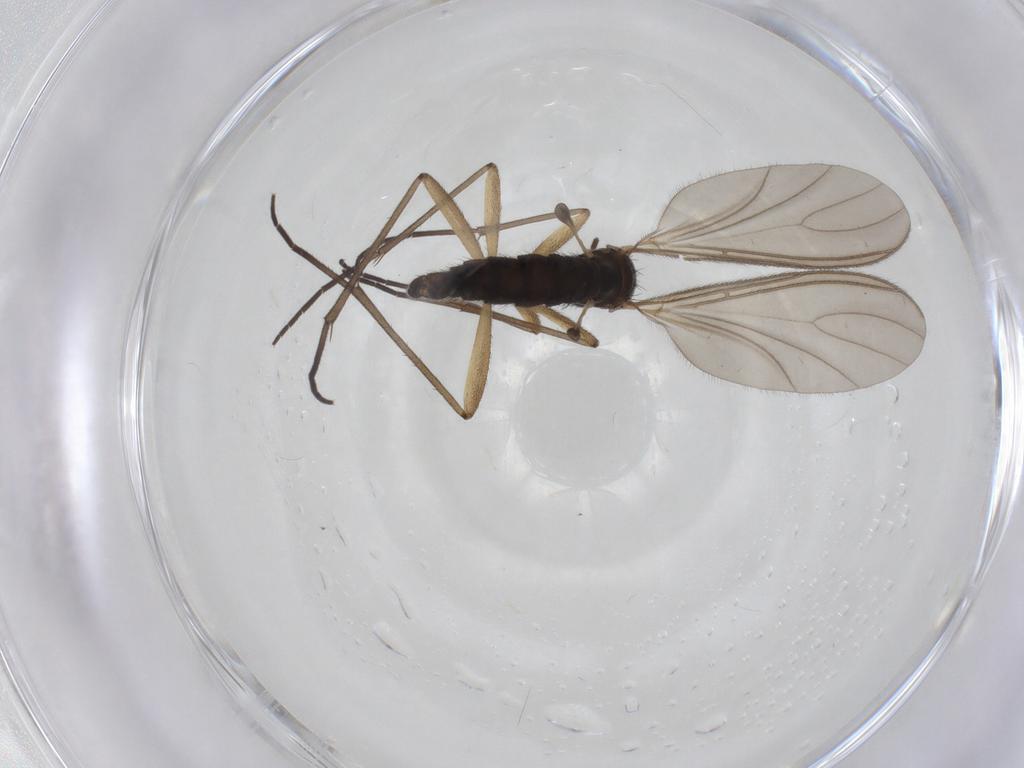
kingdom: Animalia
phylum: Arthropoda
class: Insecta
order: Diptera
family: Sciaridae
